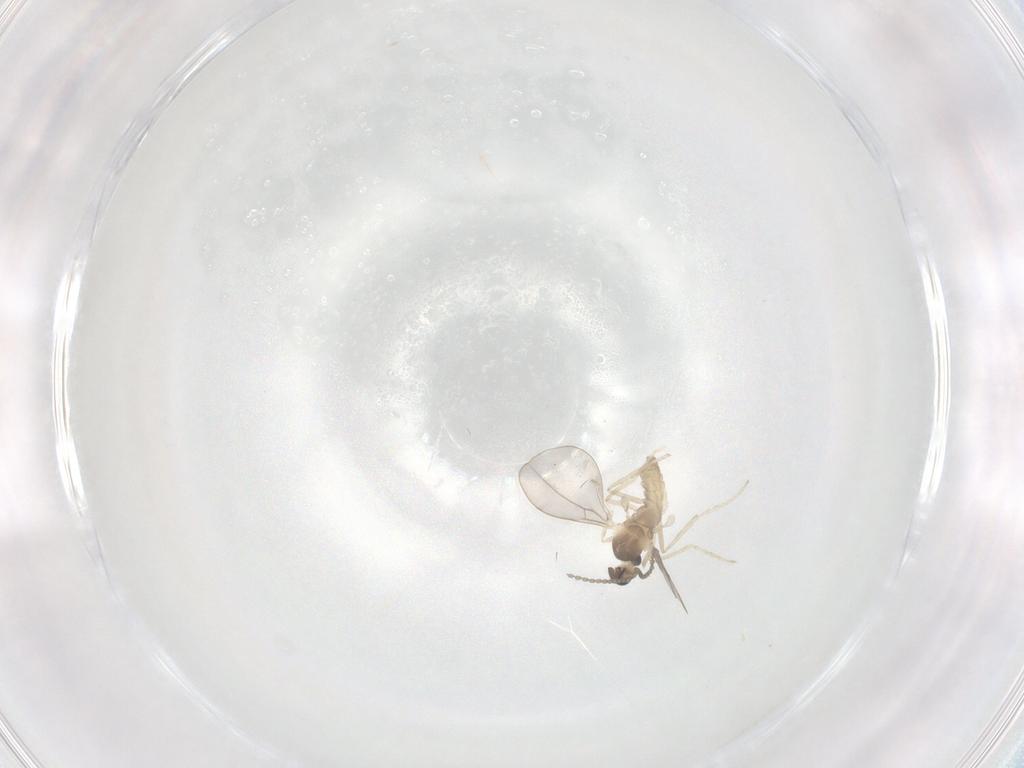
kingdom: Animalia
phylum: Arthropoda
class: Insecta
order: Diptera
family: Cecidomyiidae
